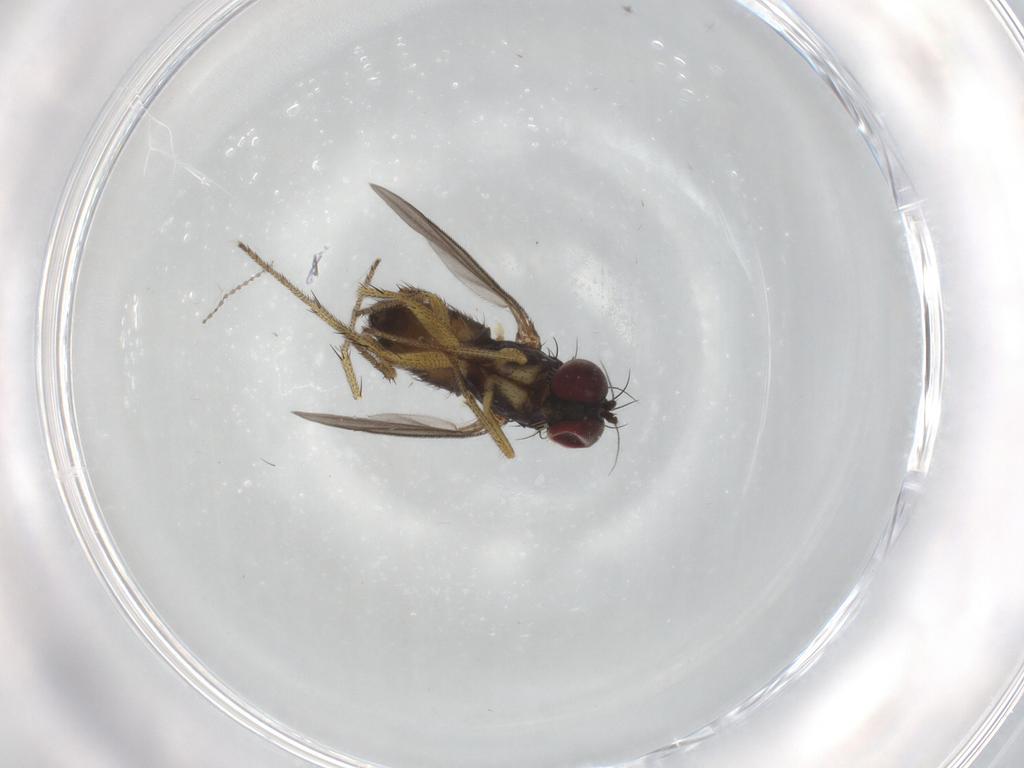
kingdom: Animalia
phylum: Arthropoda
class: Insecta
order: Diptera
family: Cecidomyiidae
